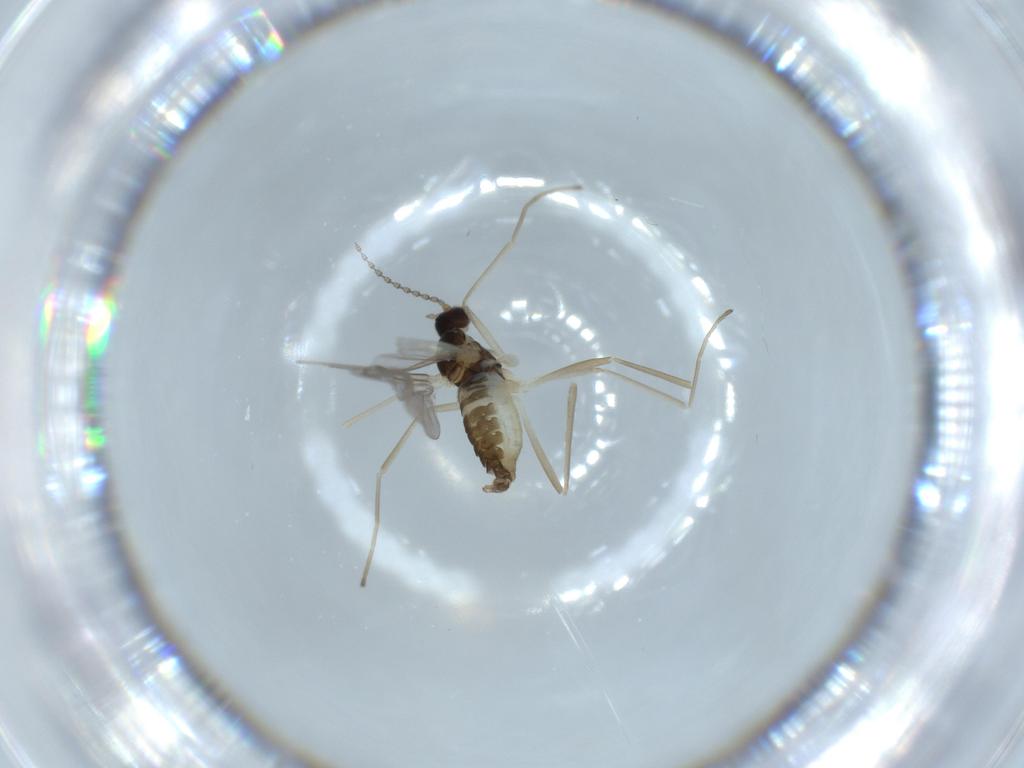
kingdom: Animalia
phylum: Arthropoda
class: Insecta
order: Diptera
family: Cecidomyiidae
